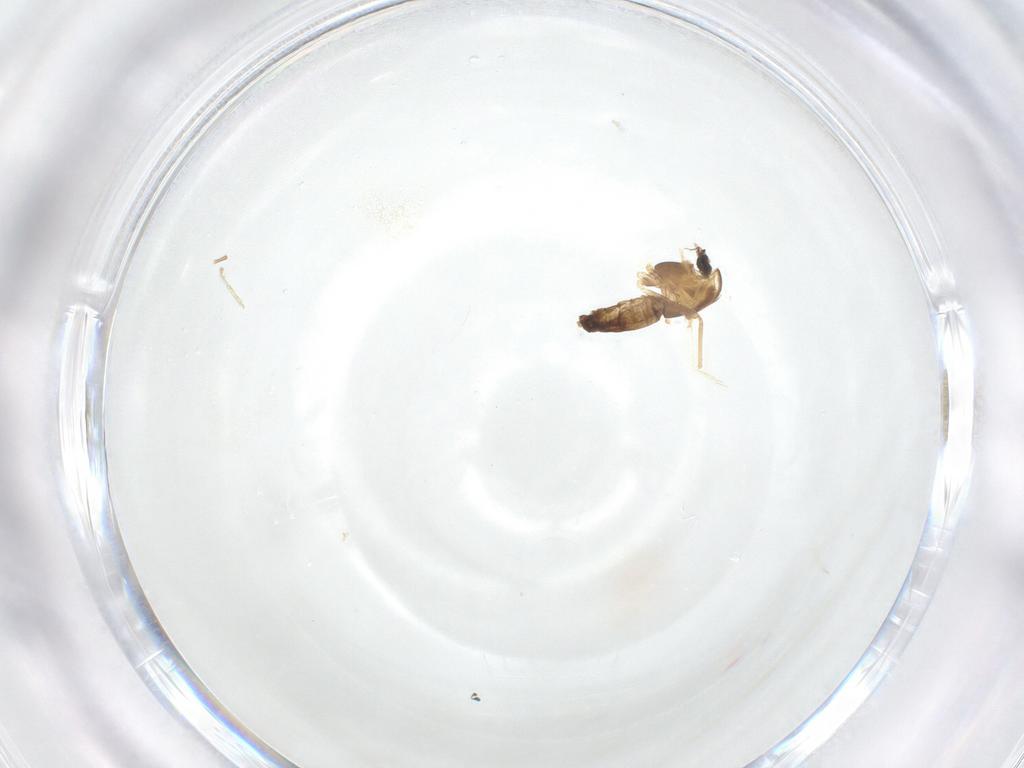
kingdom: Animalia
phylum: Arthropoda
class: Insecta
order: Diptera
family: Chironomidae
